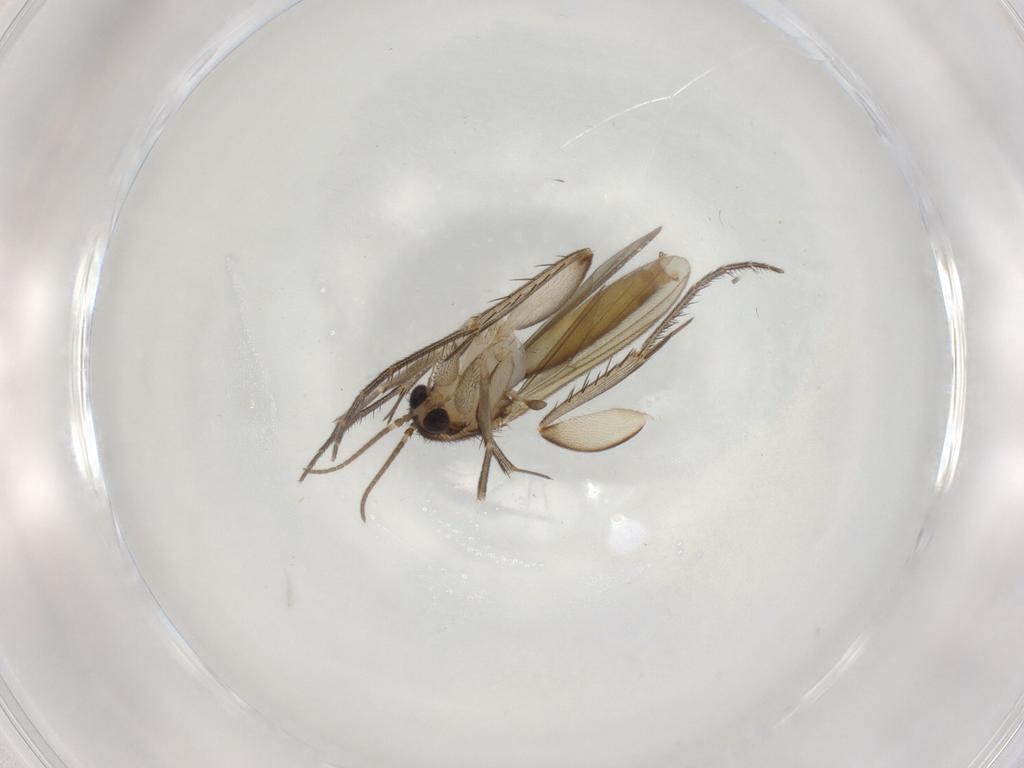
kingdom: Animalia
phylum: Arthropoda
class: Insecta
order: Diptera
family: Mycetophilidae
